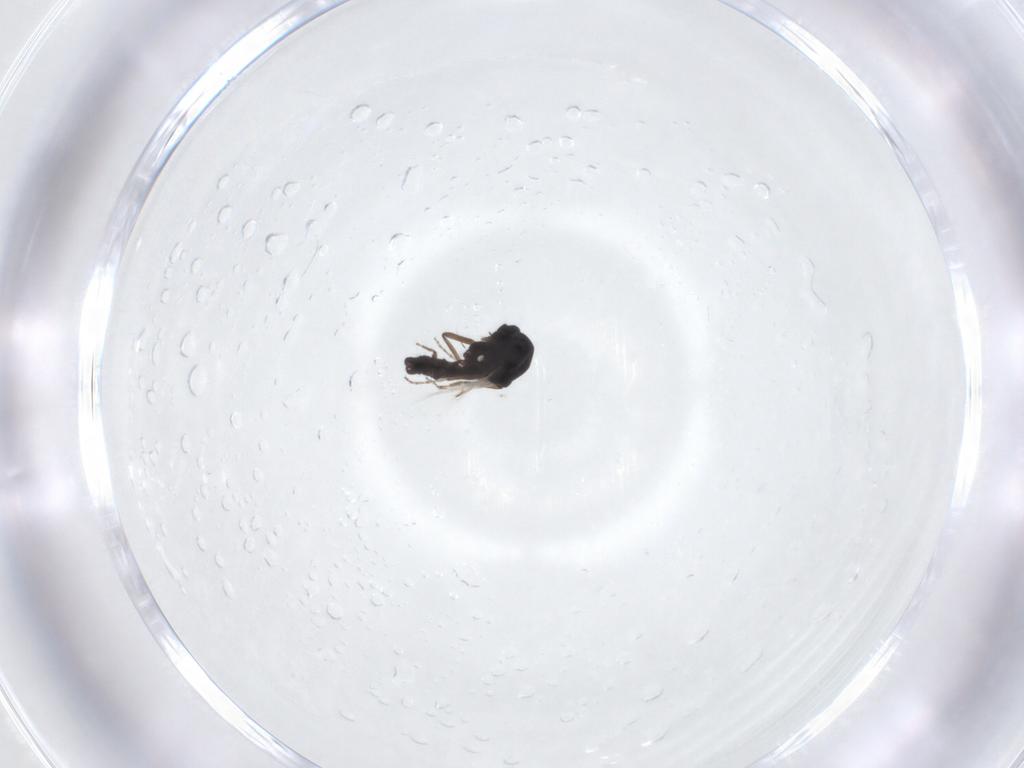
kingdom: Animalia
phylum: Arthropoda
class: Insecta
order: Diptera
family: Ceratopogonidae
